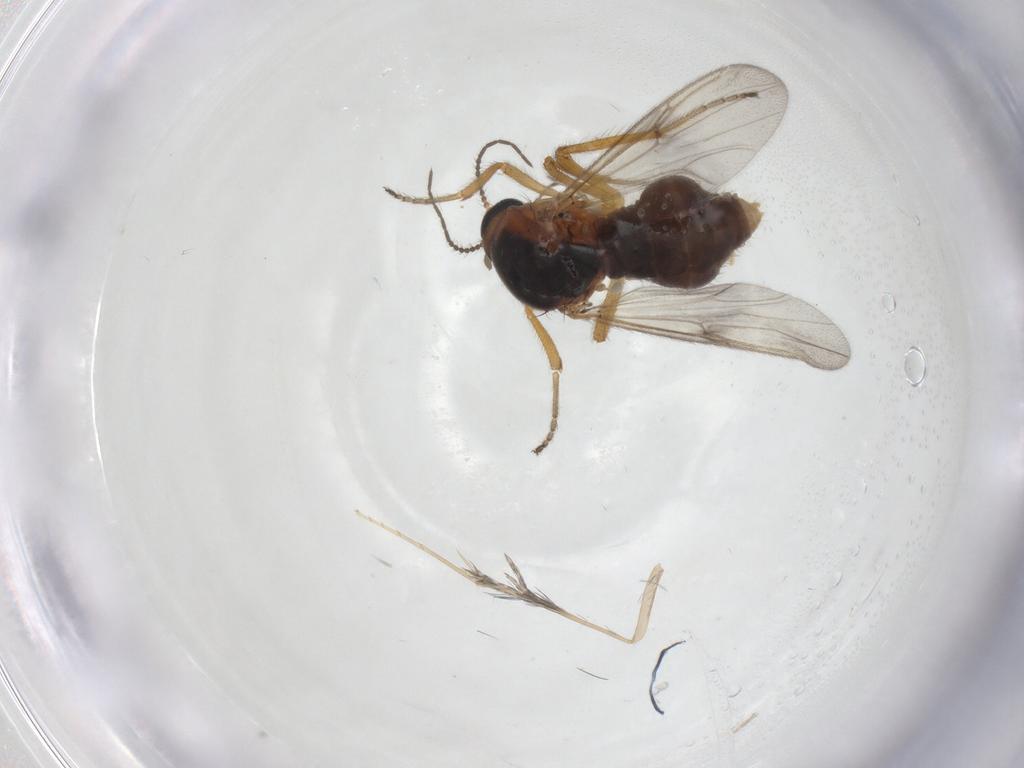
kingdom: Animalia
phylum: Arthropoda
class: Insecta
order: Diptera
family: Ceratopogonidae
